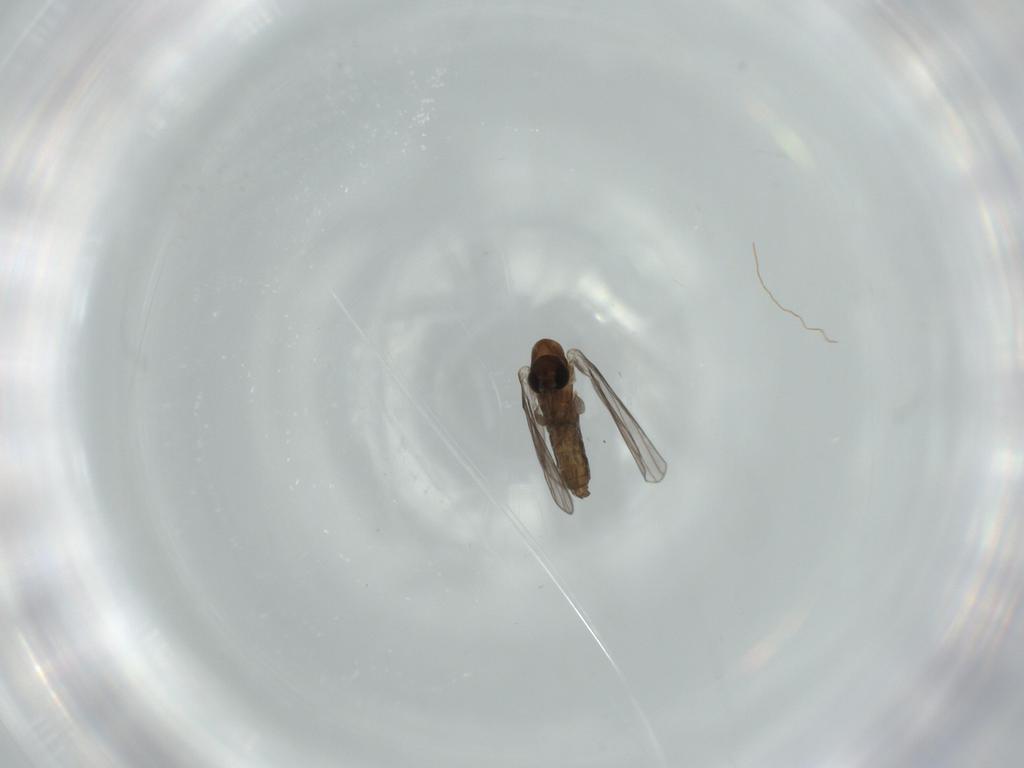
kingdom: Animalia
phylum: Arthropoda
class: Insecta
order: Diptera
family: Psychodidae
